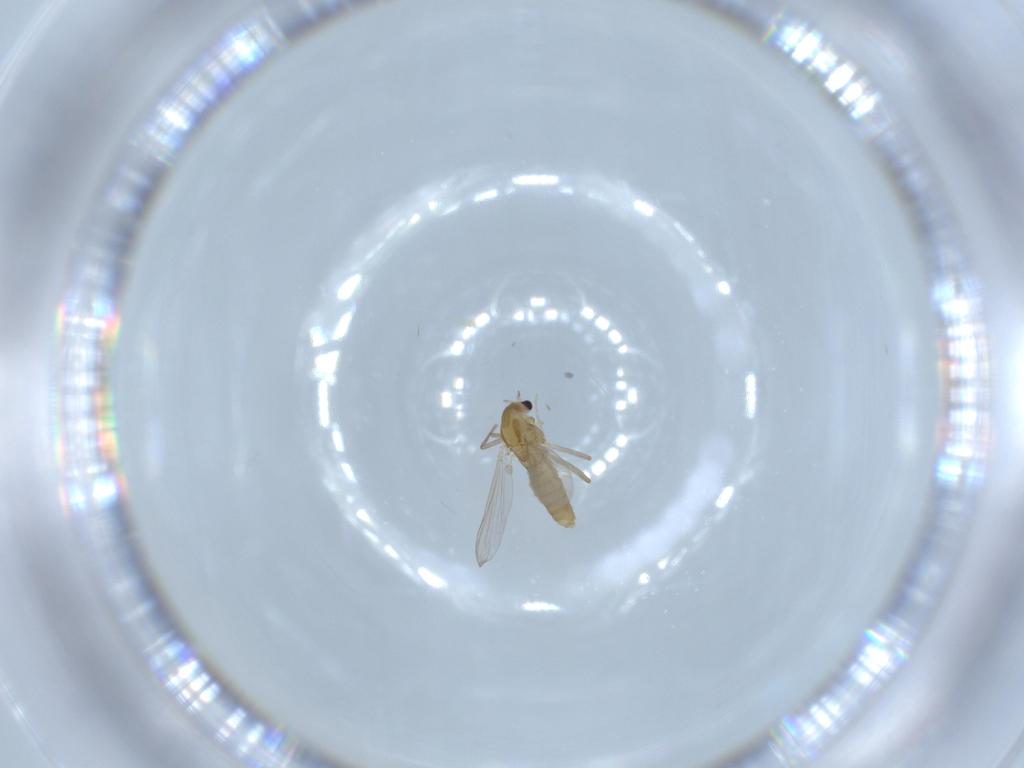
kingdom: Animalia
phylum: Arthropoda
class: Insecta
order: Diptera
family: Chironomidae
